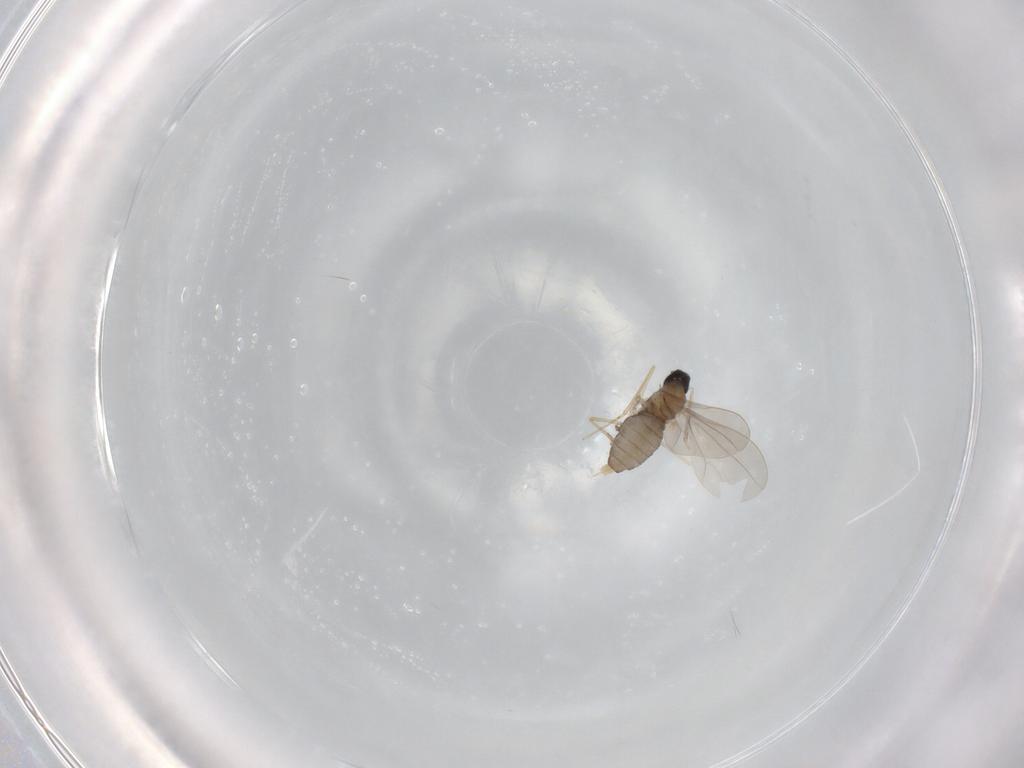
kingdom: Animalia
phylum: Arthropoda
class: Insecta
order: Diptera
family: Cecidomyiidae
